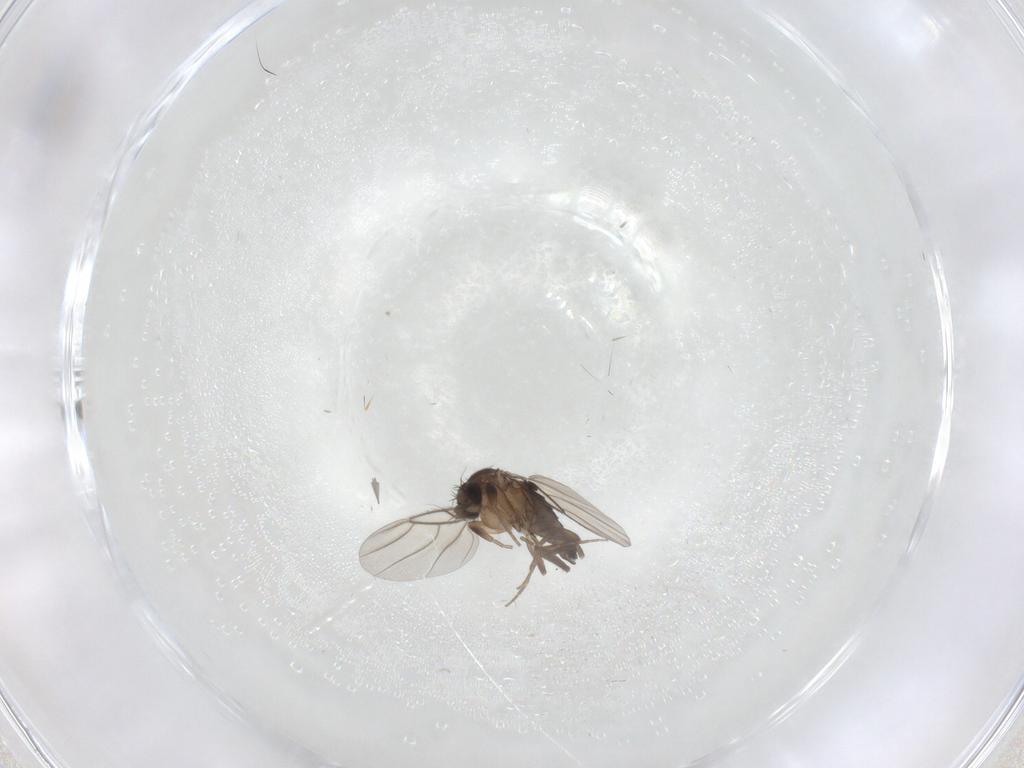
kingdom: Animalia
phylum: Arthropoda
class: Insecta
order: Diptera
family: Phoridae
